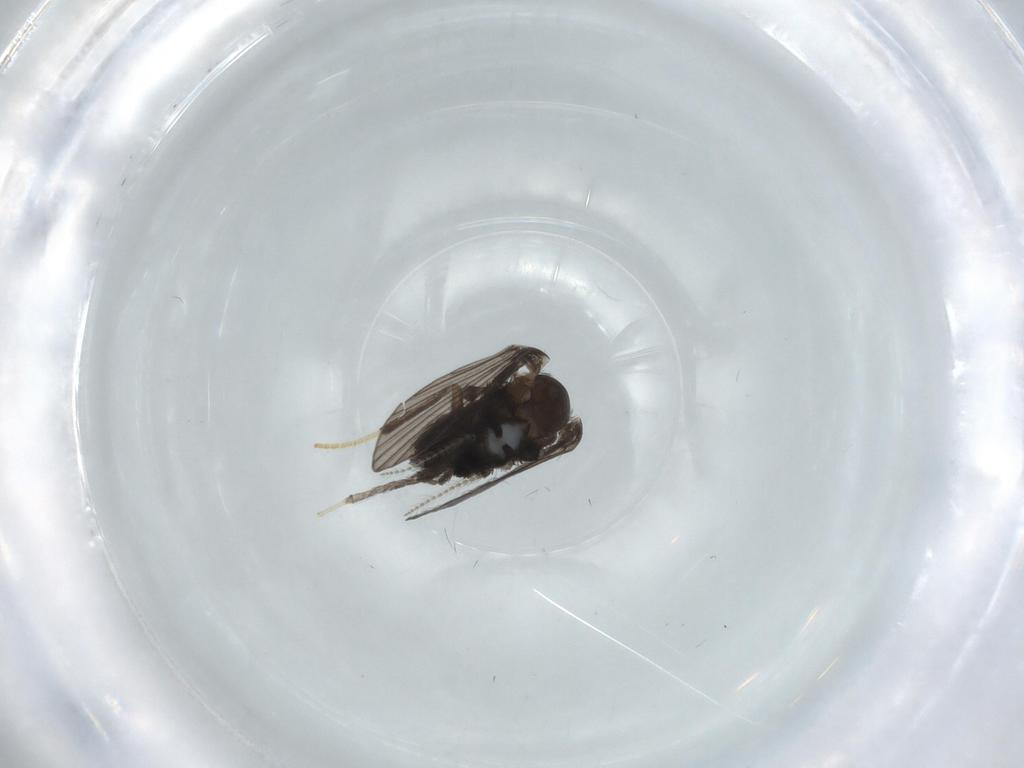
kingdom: Animalia
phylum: Arthropoda
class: Insecta
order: Diptera
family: Psychodidae
